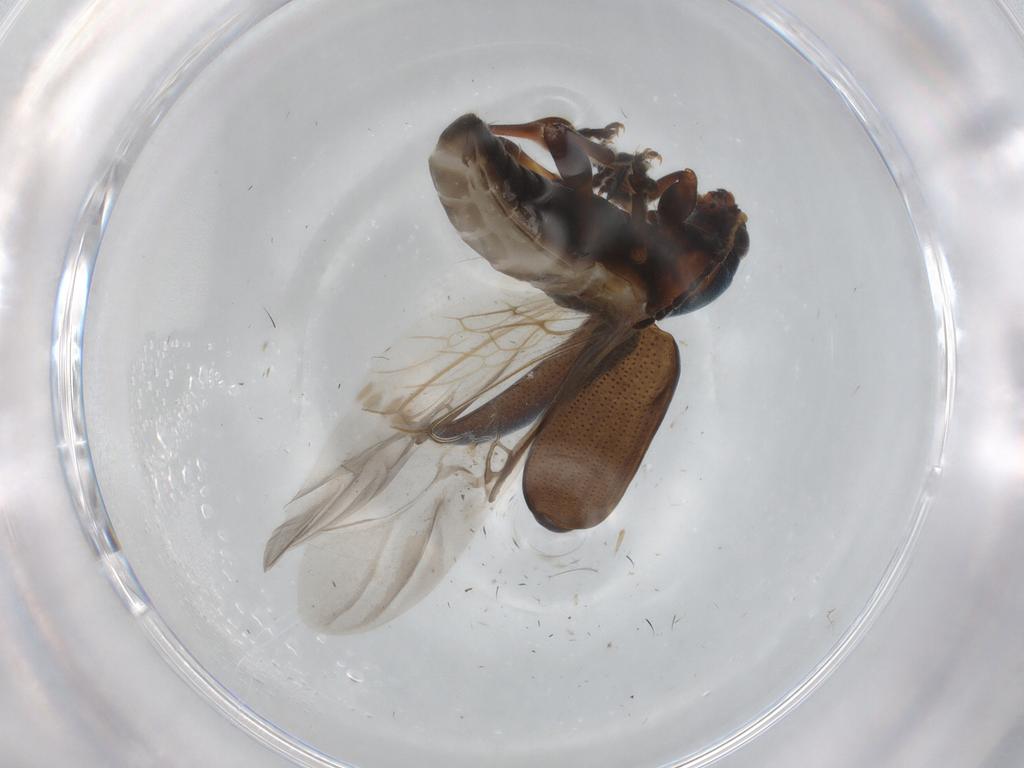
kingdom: Animalia
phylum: Arthropoda
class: Insecta
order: Coleoptera
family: Chrysomelidae
